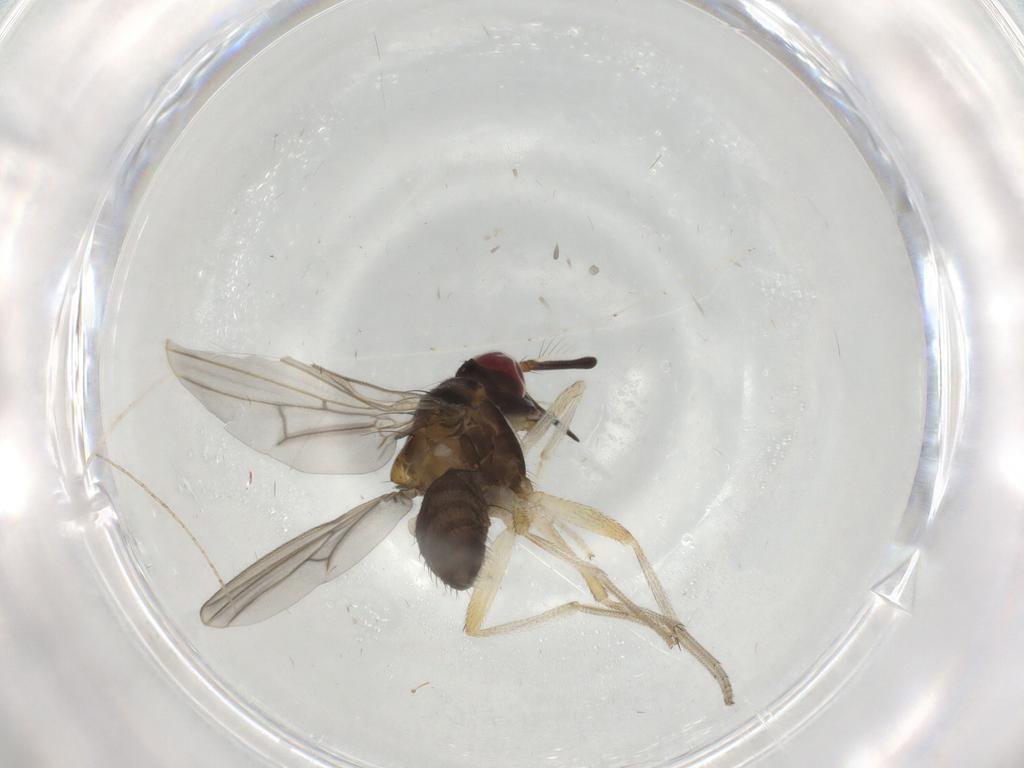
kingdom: Animalia
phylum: Arthropoda
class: Insecta
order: Diptera
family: Lauxaniidae
